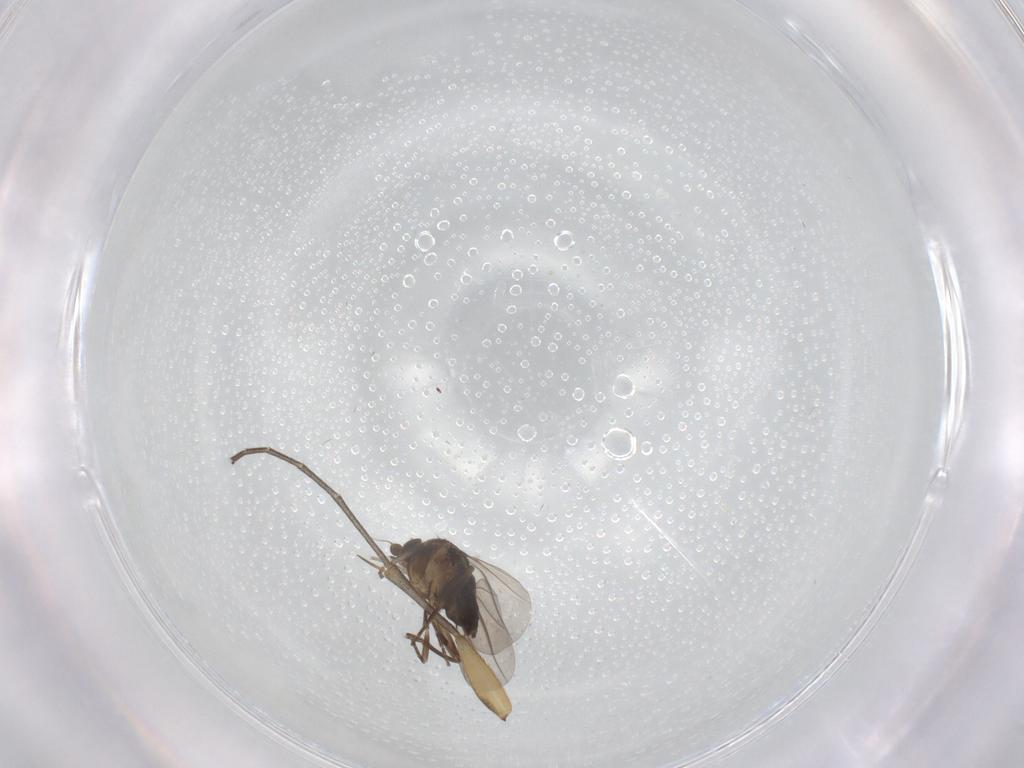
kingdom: Animalia
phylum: Arthropoda
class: Insecta
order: Diptera
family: Mycetophilidae
